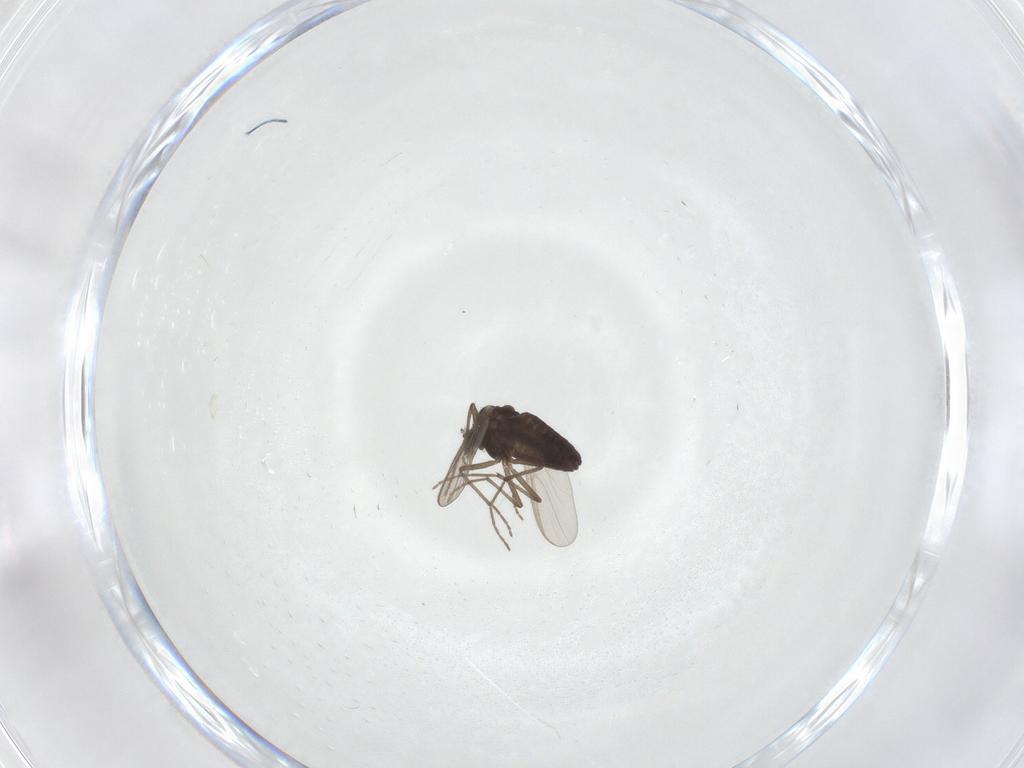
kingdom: Animalia
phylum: Arthropoda
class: Insecta
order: Diptera
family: Chironomidae
